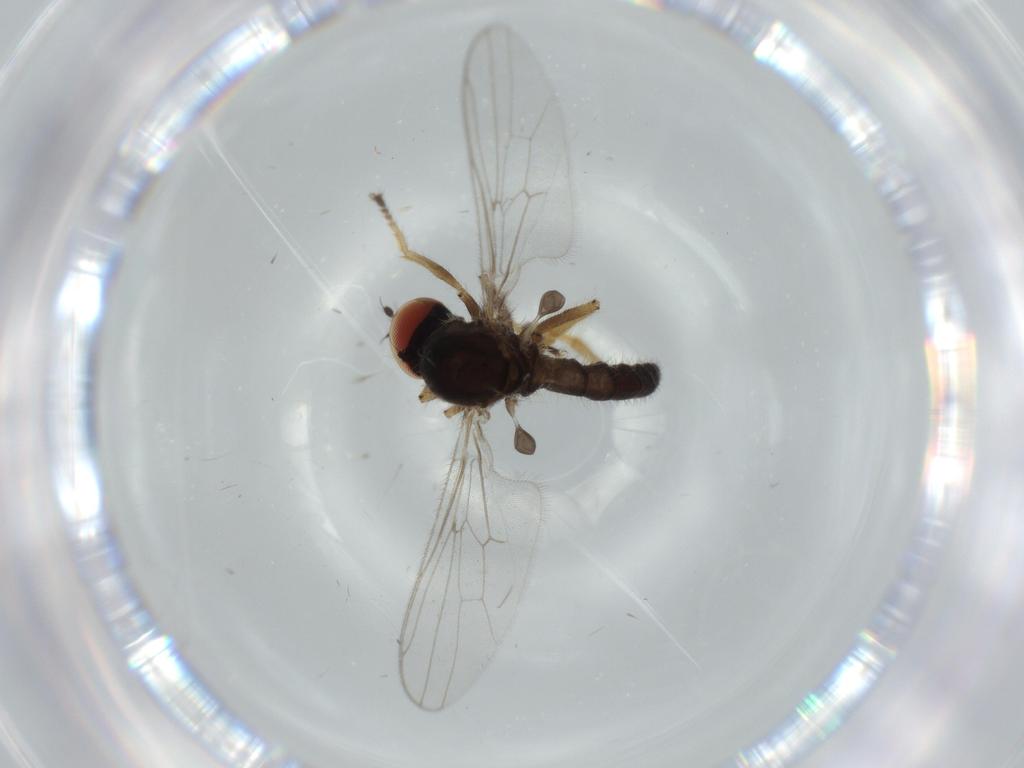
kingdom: Animalia
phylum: Arthropoda
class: Insecta
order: Diptera
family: Cecidomyiidae
